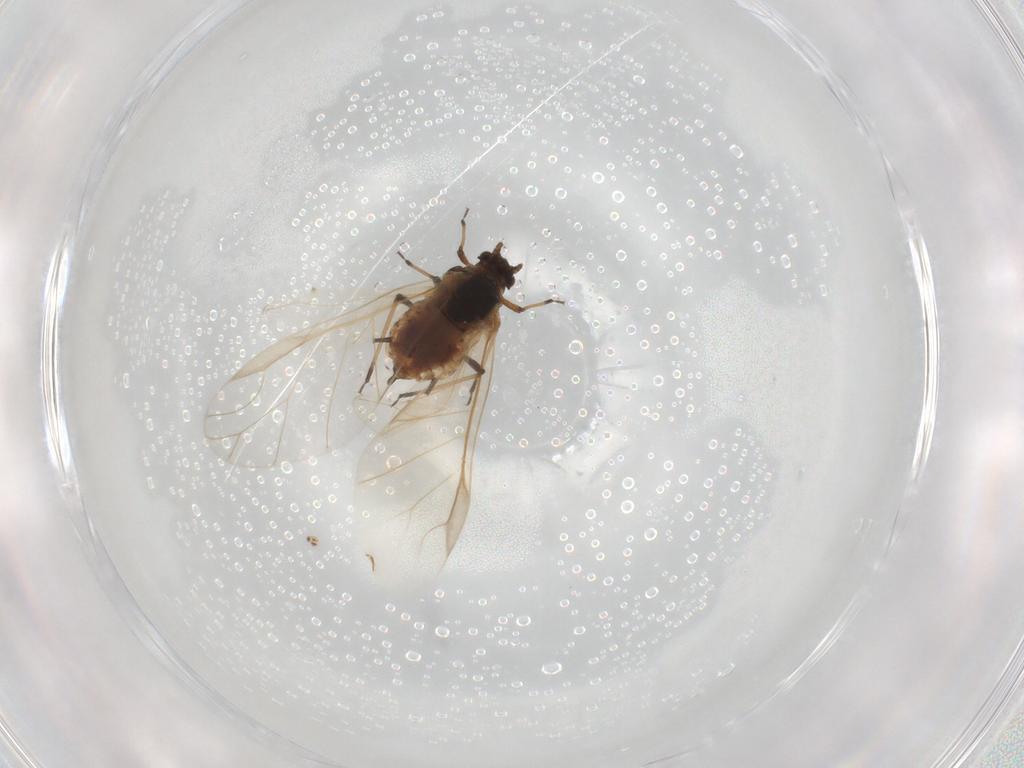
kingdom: Animalia
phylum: Arthropoda
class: Insecta
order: Hemiptera
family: Aphididae
